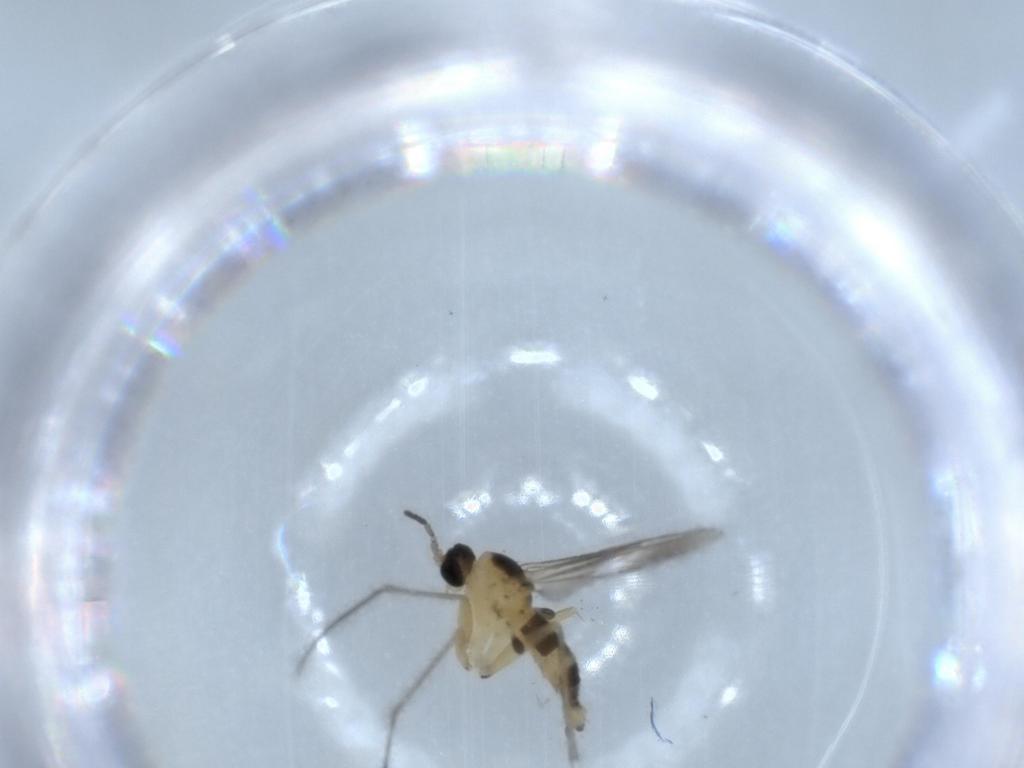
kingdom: Animalia
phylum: Arthropoda
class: Insecta
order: Diptera
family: Sciaridae
